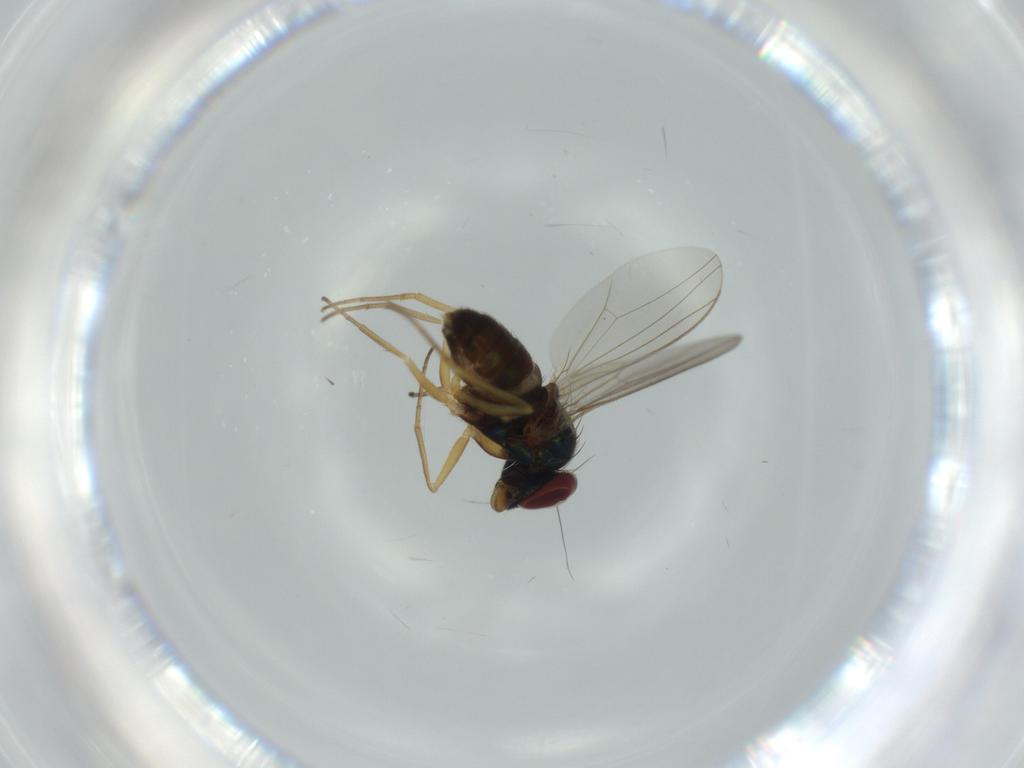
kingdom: Animalia
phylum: Arthropoda
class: Insecta
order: Diptera
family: Dolichopodidae
